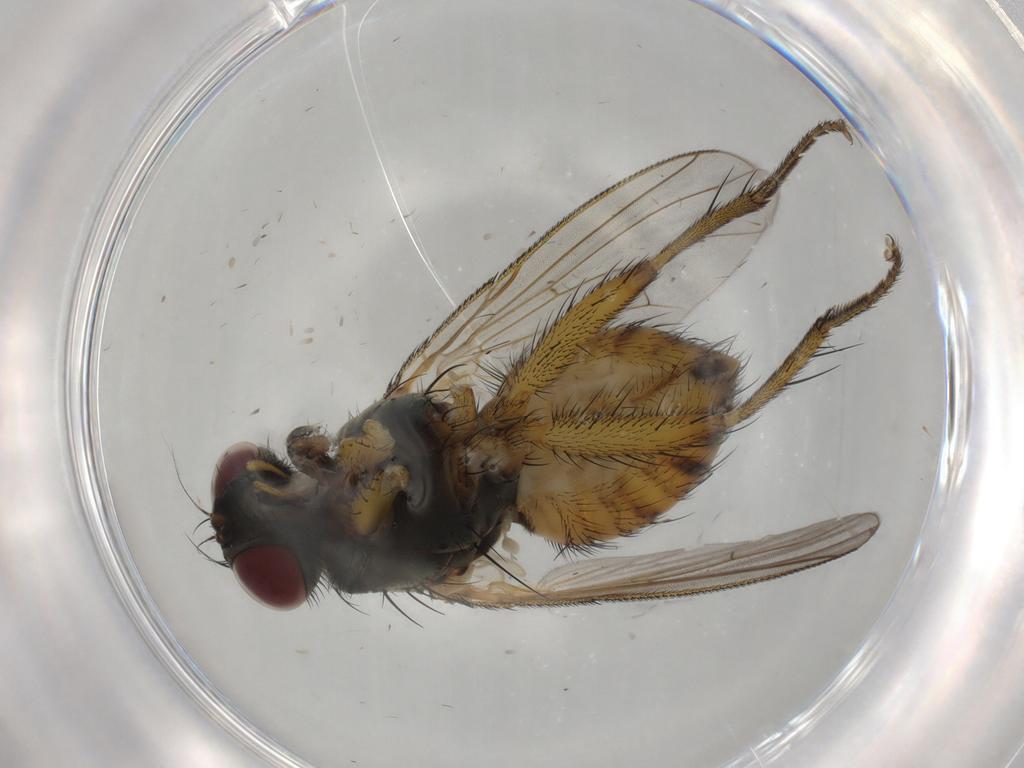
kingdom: Animalia
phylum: Arthropoda
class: Insecta
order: Diptera
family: Muscidae
